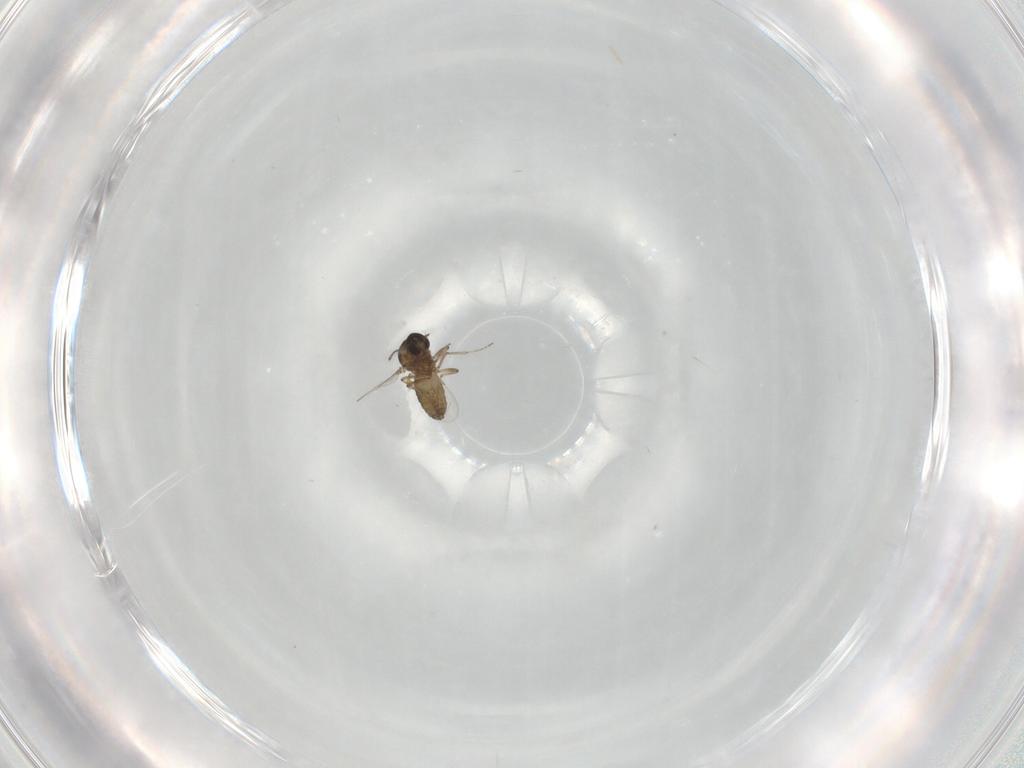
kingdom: Animalia
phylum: Arthropoda
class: Insecta
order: Diptera
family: Ceratopogonidae
